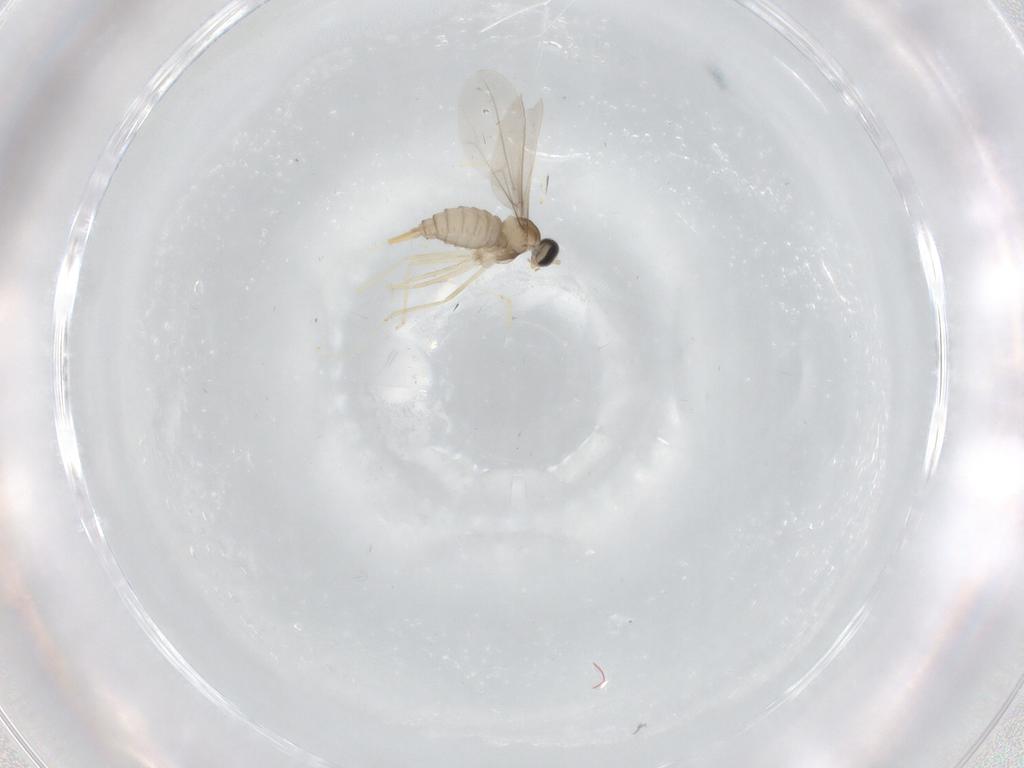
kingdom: Animalia
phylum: Arthropoda
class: Insecta
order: Diptera
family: Cecidomyiidae
